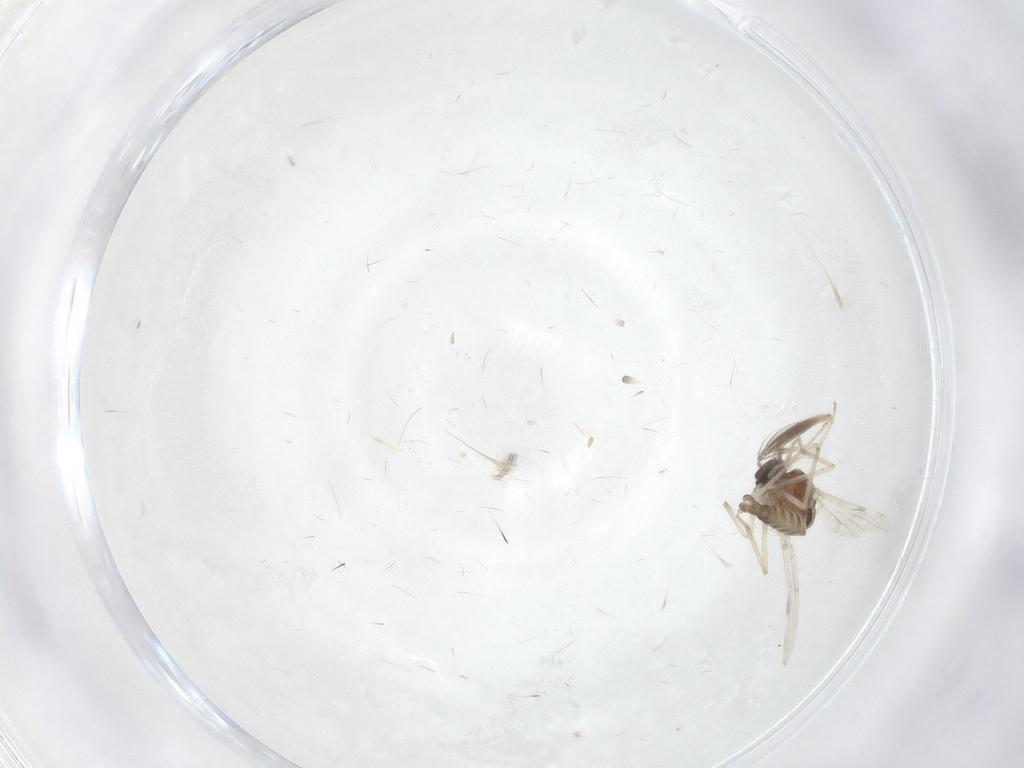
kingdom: Animalia
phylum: Arthropoda
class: Insecta
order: Diptera
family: Ceratopogonidae
